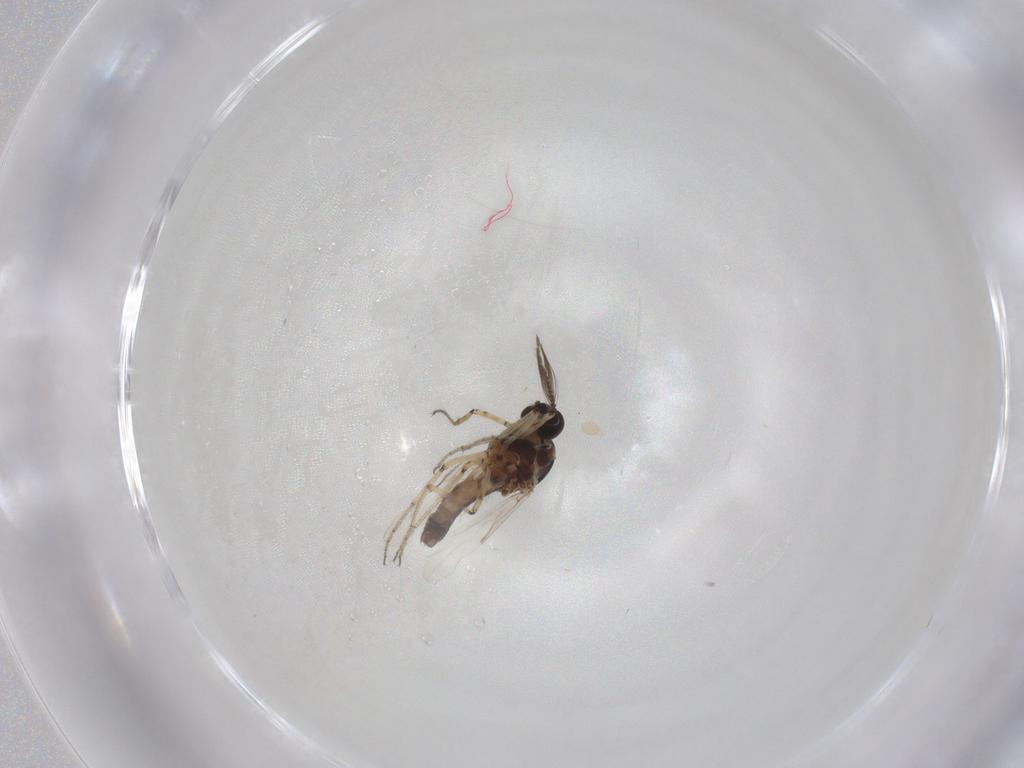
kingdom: Animalia
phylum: Arthropoda
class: Insecta
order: Diptera
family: Ceratopogonidae
